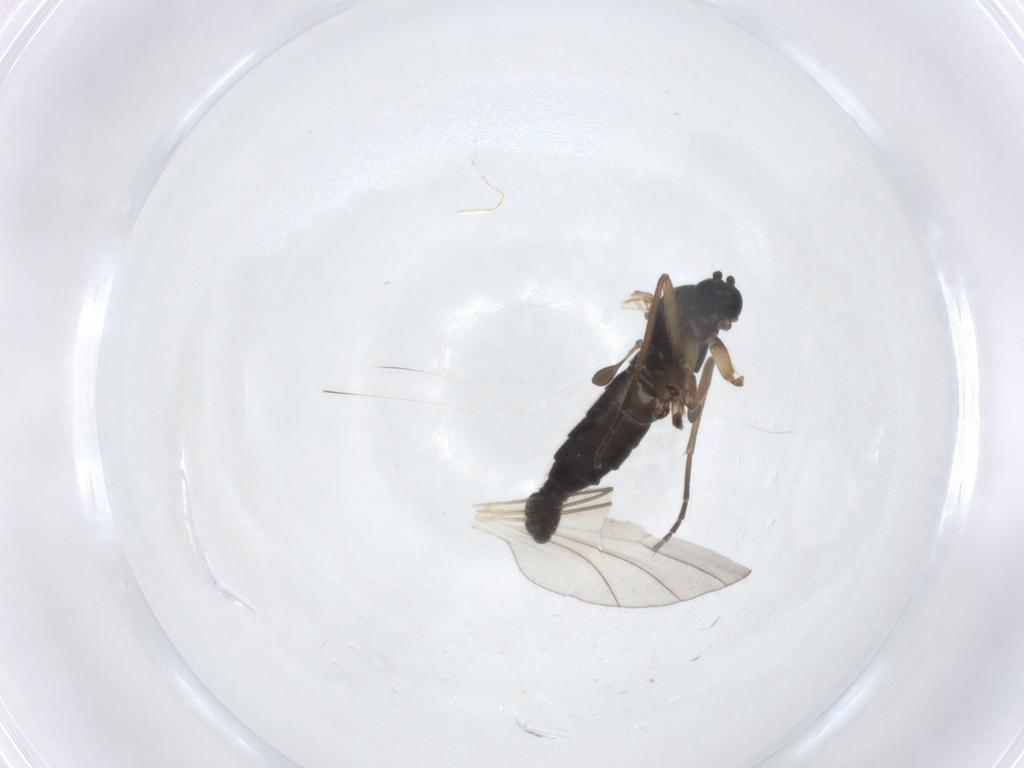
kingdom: Animalia
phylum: Arthropoda
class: Insecta
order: Diptera
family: Sciaridae
